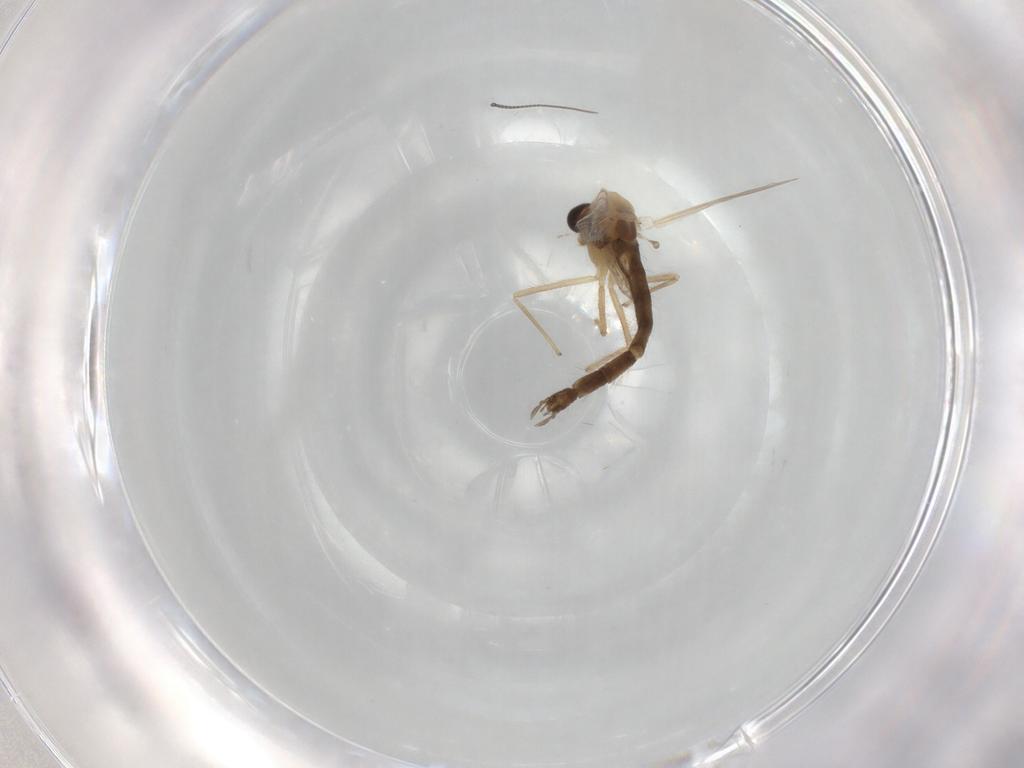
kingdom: Animalia
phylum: Arthropoda
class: Insecta
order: Diptera
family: Chironomidae
